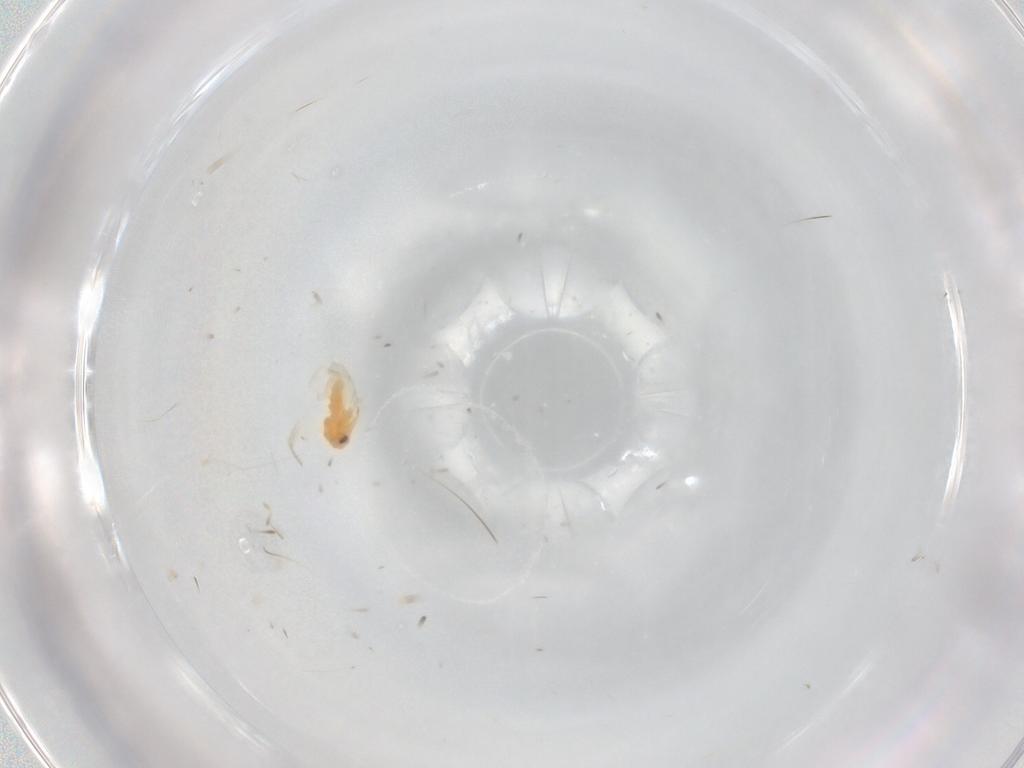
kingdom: Animalia
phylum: Arthropoda
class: Insecta
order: Hemiptera
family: Cicadellidae
